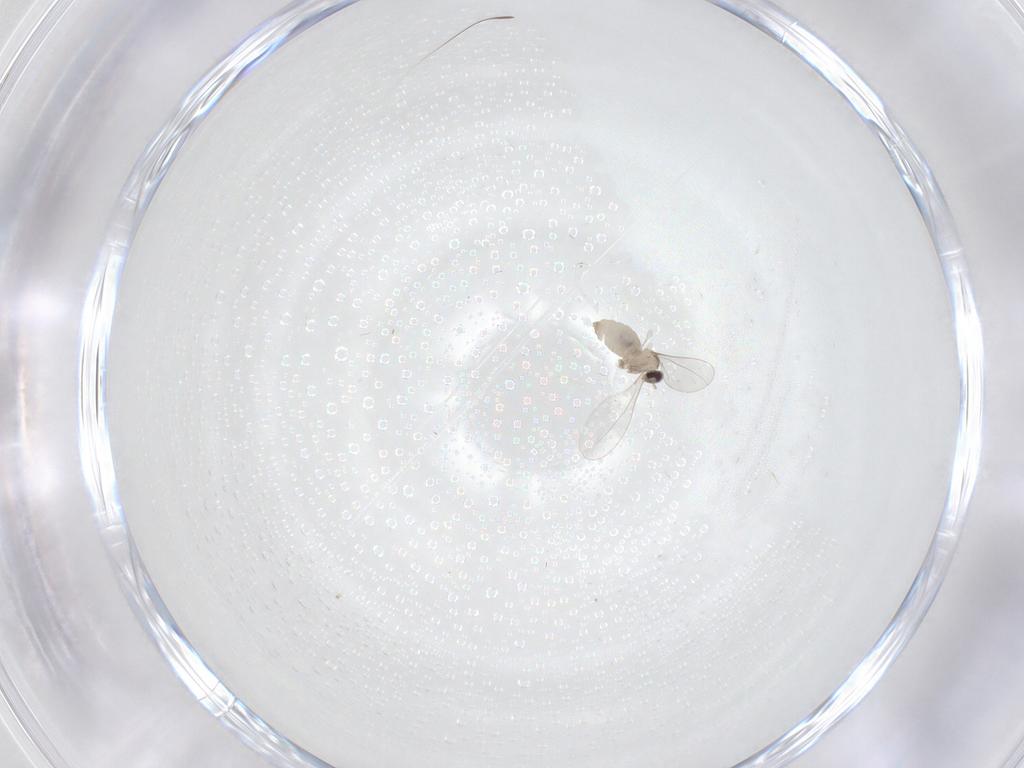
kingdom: Animalia
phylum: Arthropoda
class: Insecta
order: Diptera
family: Cecidomyiidae
